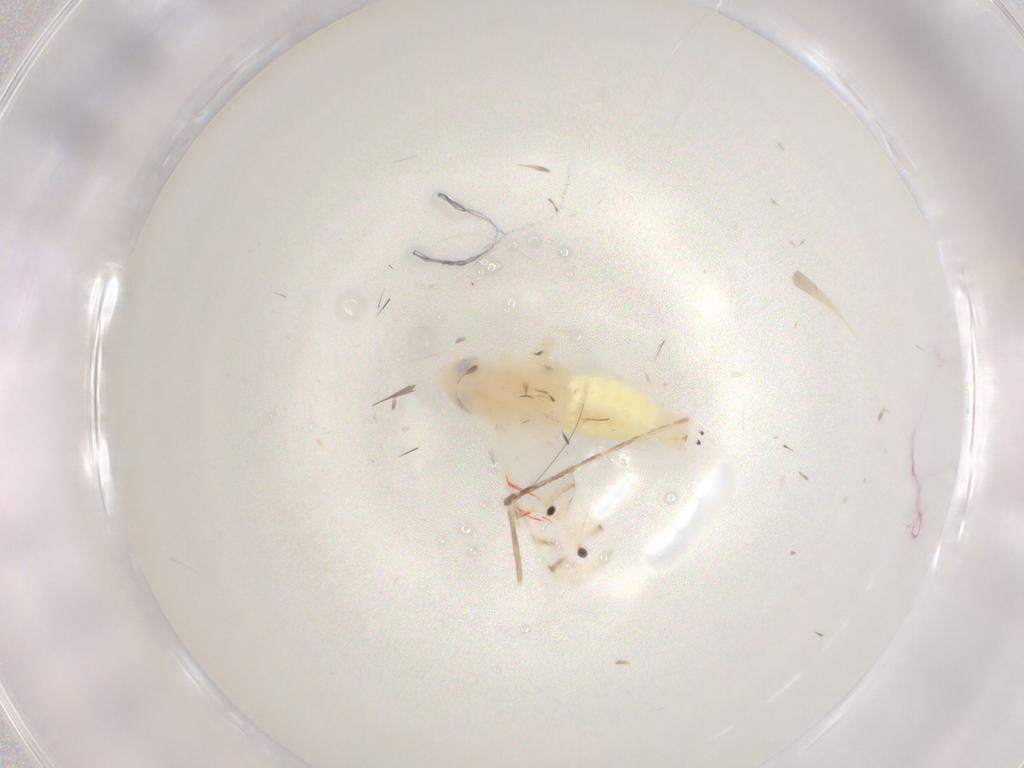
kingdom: Animalia
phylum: Arthropoda
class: Insecta
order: Hemiptera
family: Cicadellidae
